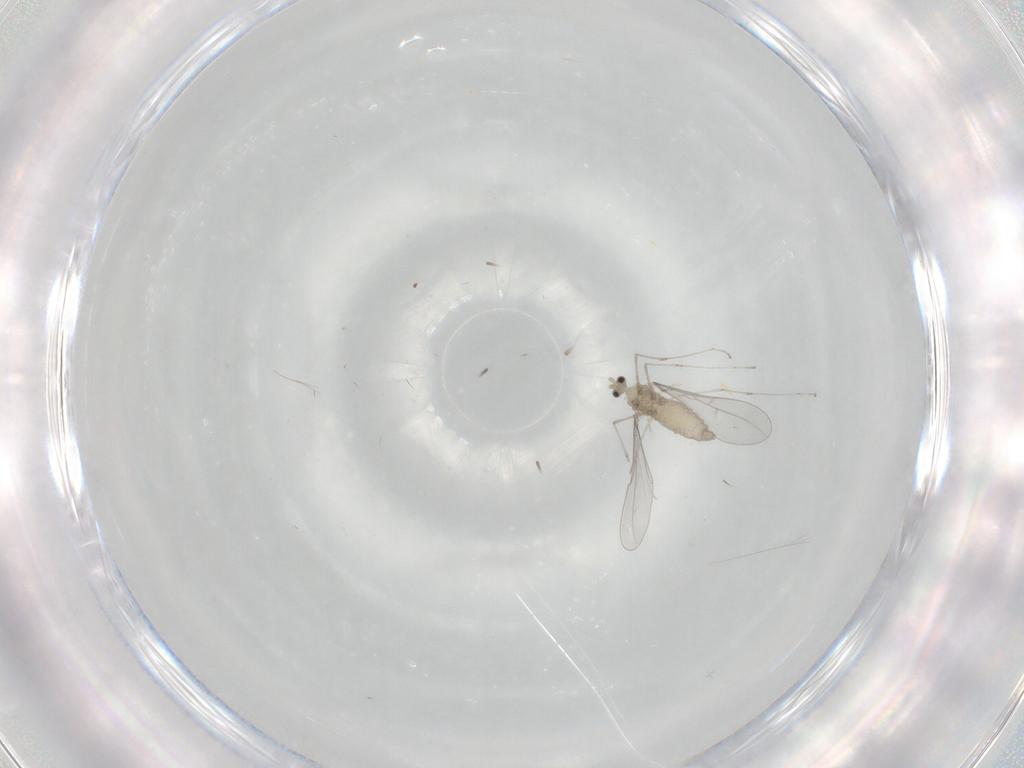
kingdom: Animalia
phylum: Arthropoda
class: Insecta
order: Diptera
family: Cecidomyiidae
